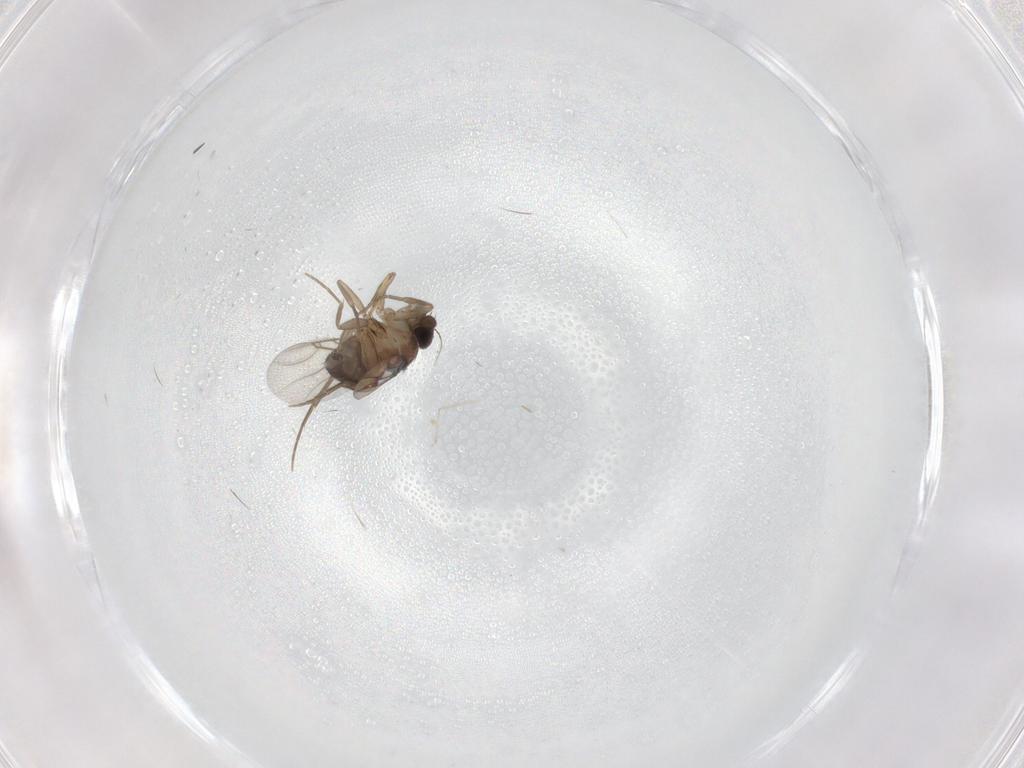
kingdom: Animalia
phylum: Arthropoda
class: Insecta
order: Diptera
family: Phoridae
